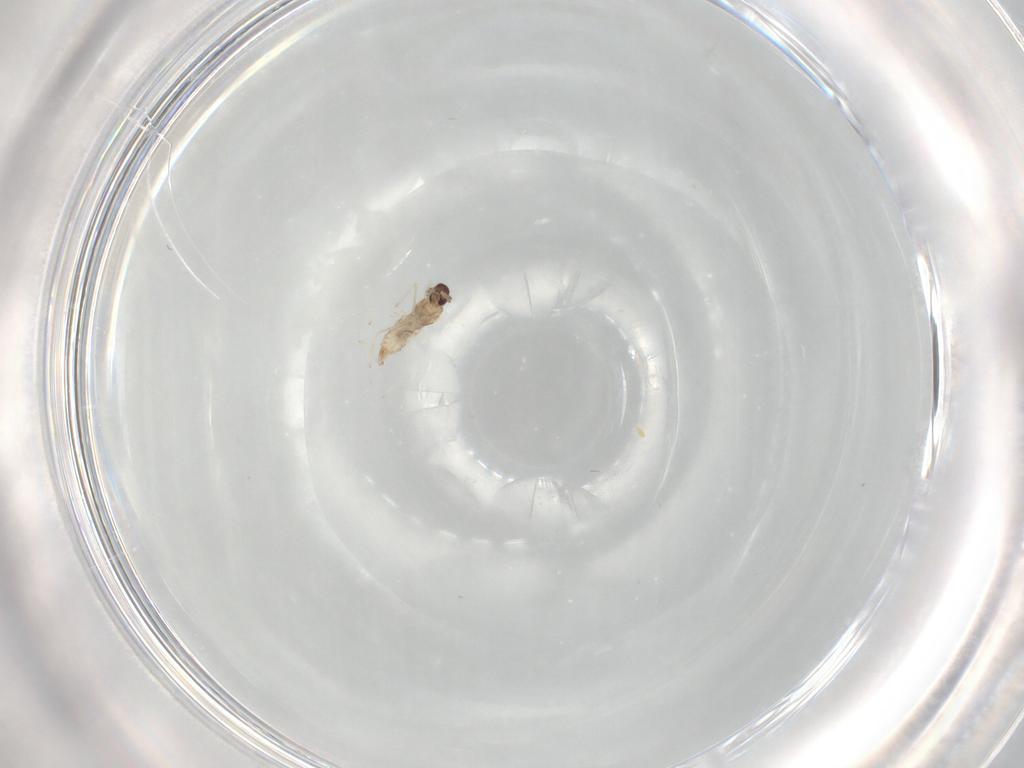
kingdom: Animalia
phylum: Arthropoda
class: Insecta
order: Diptera
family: Cecidomyiidae
